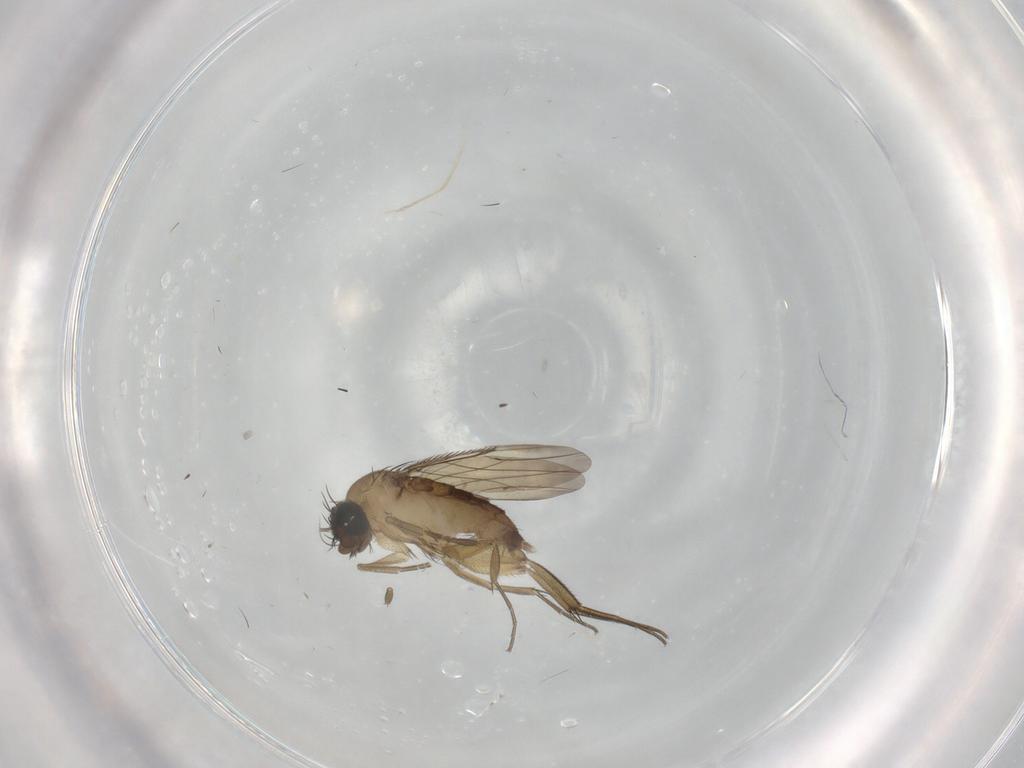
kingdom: Animalia
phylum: Arthropoda
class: Insecta
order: Diptera
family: Phoridae
